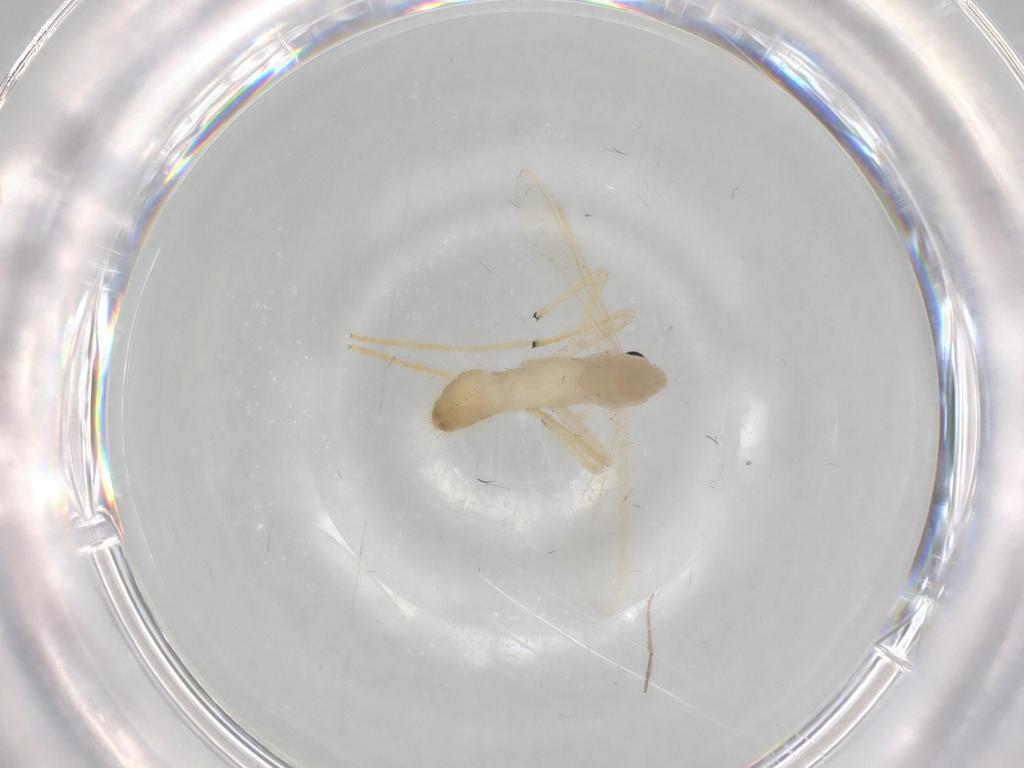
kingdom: Animalia
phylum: Arthropoda
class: Insecta
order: Diptera
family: Chironomidae
